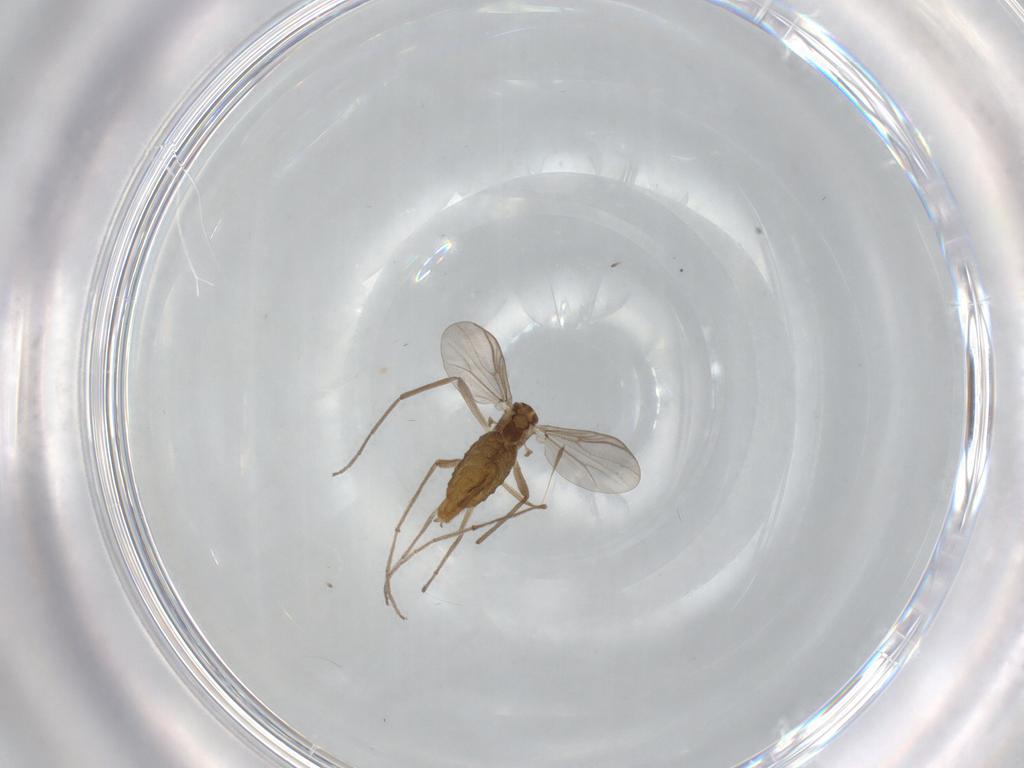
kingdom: Animalia
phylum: Arthropoda
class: Insecta
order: Diptera
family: Chironomidae
